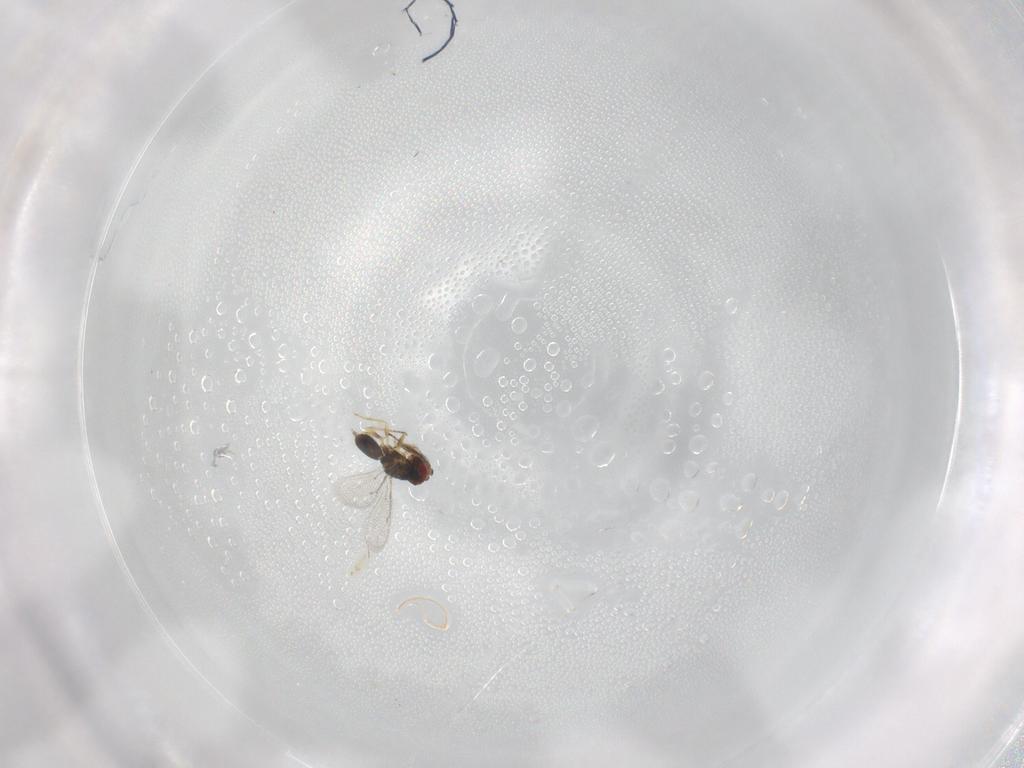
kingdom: Animalia
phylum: Arthropoda
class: Insecta
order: Hymenoptera
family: Eulophidae
